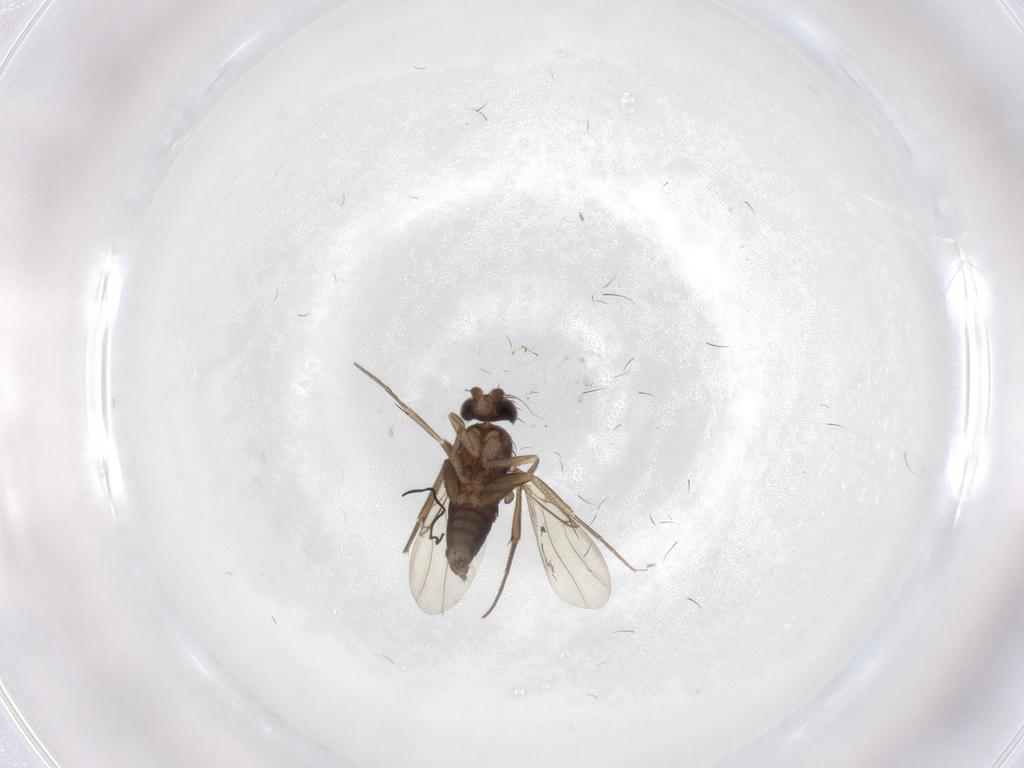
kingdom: Animalia
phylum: Arthropoda
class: Insecta
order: Diptera
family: Phoridae
